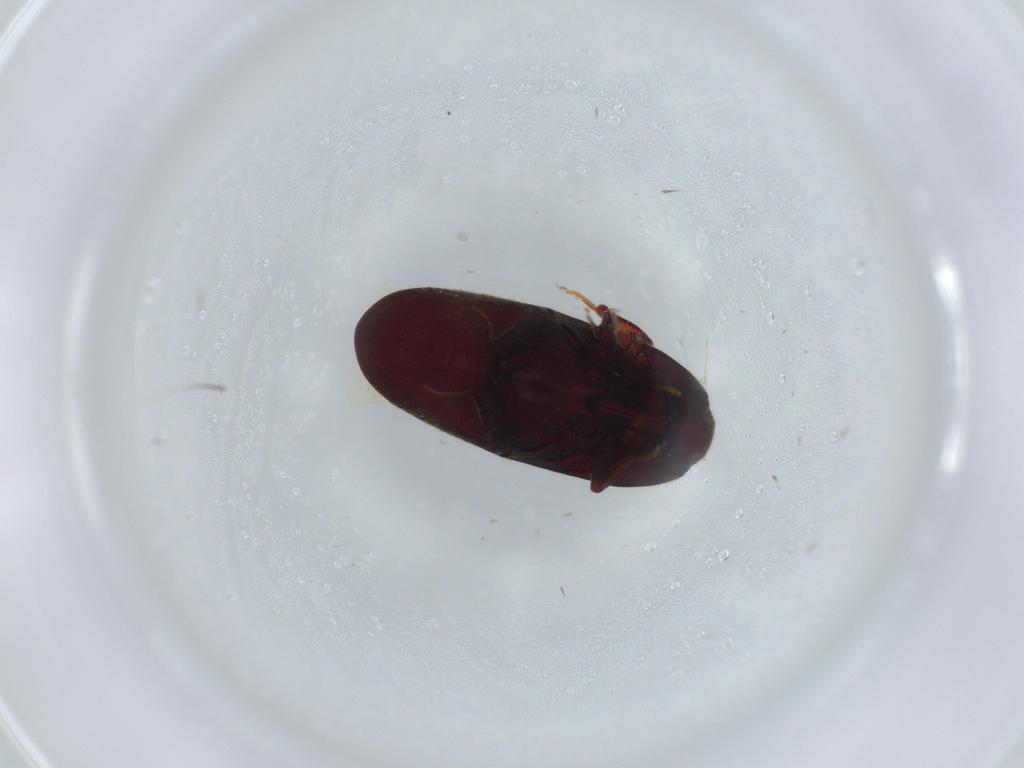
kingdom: Animalia
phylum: Arthropoda
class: Insecta
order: Coleoptera
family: Throscidae
